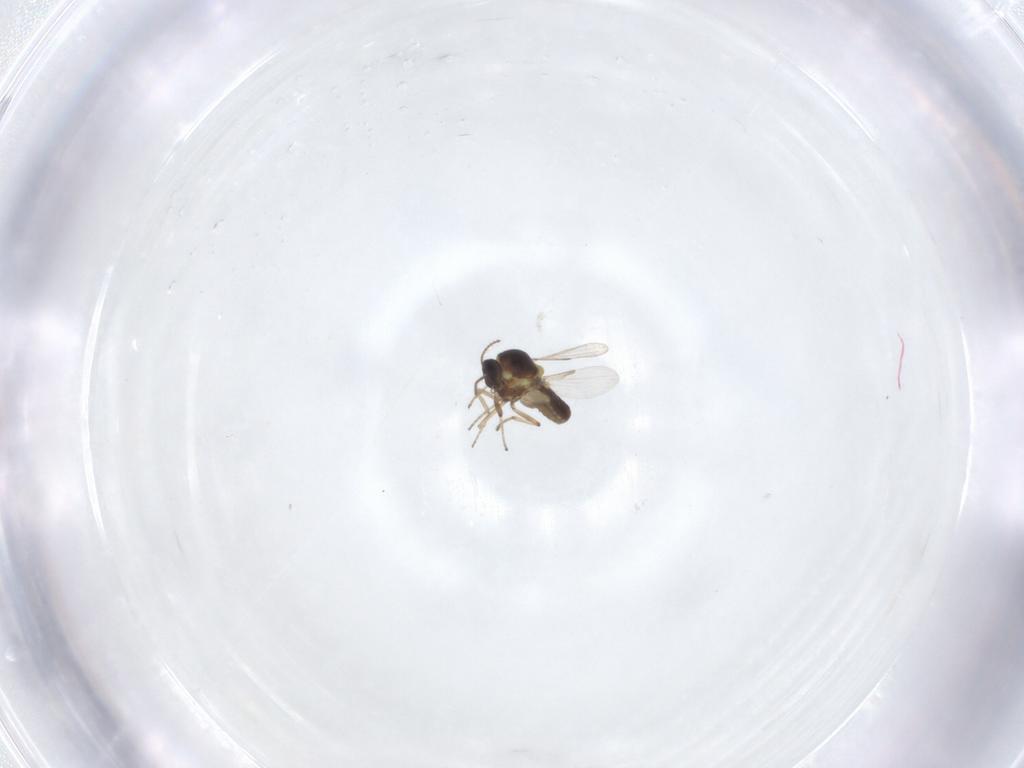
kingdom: Animalia
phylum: Arthropoda
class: Insecta
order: Diptera
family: Ceratopogonidae
